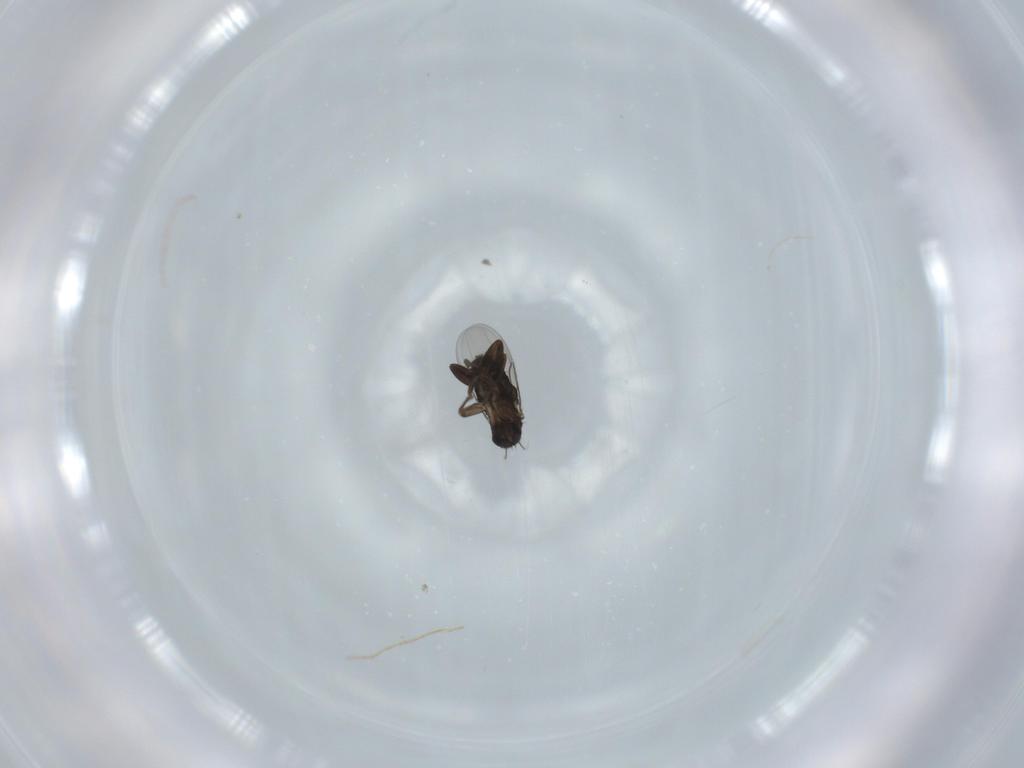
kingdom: Animalia
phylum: Arthropoda
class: Insecta
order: Diptera
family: Phoridae
